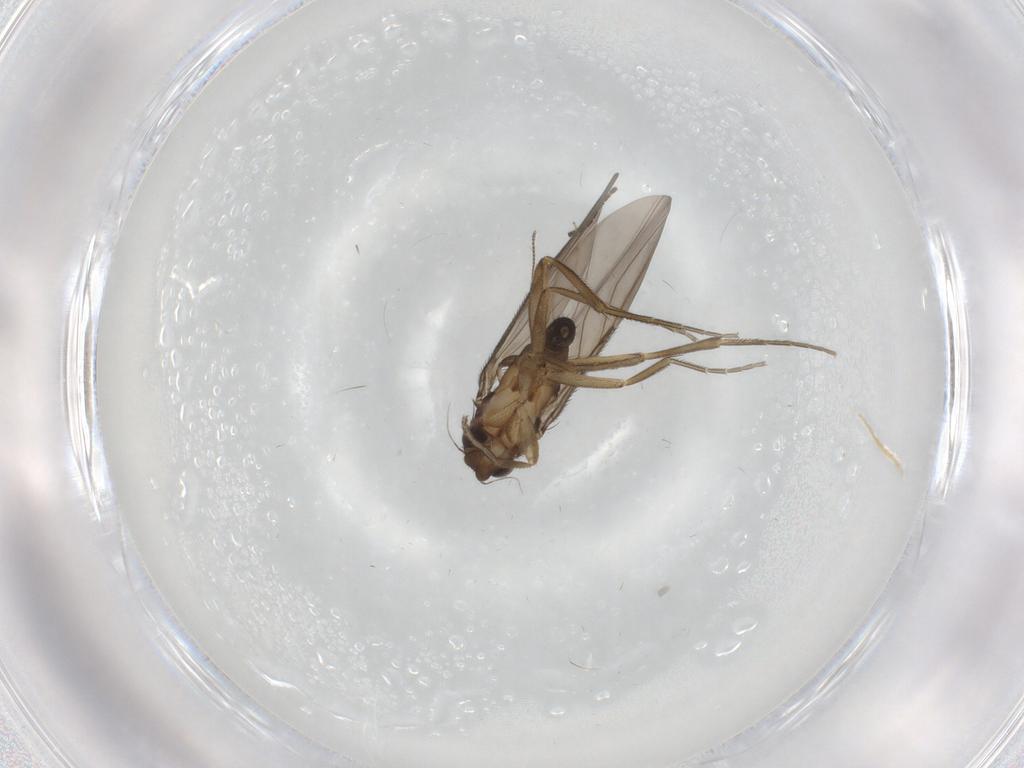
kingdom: Animalia
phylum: Arthropoda
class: Insecta
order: Diptera
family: Chironomidae
